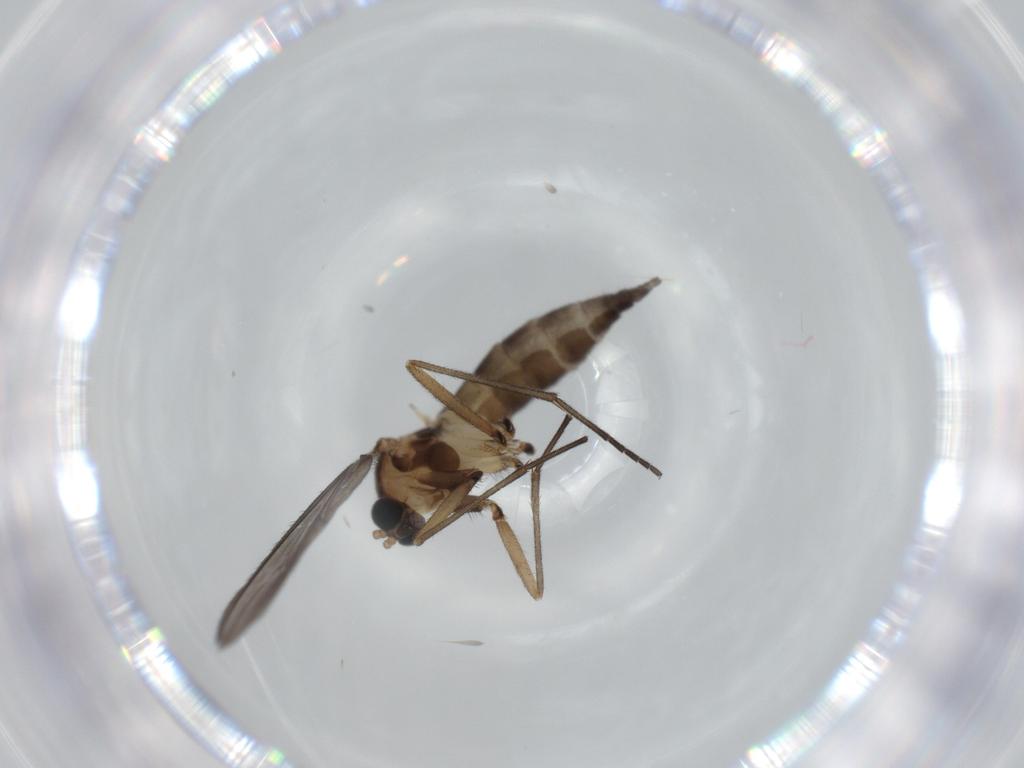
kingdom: Animalia
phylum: Arthropoda
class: Insecta
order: Diptera
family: Sciaridae
